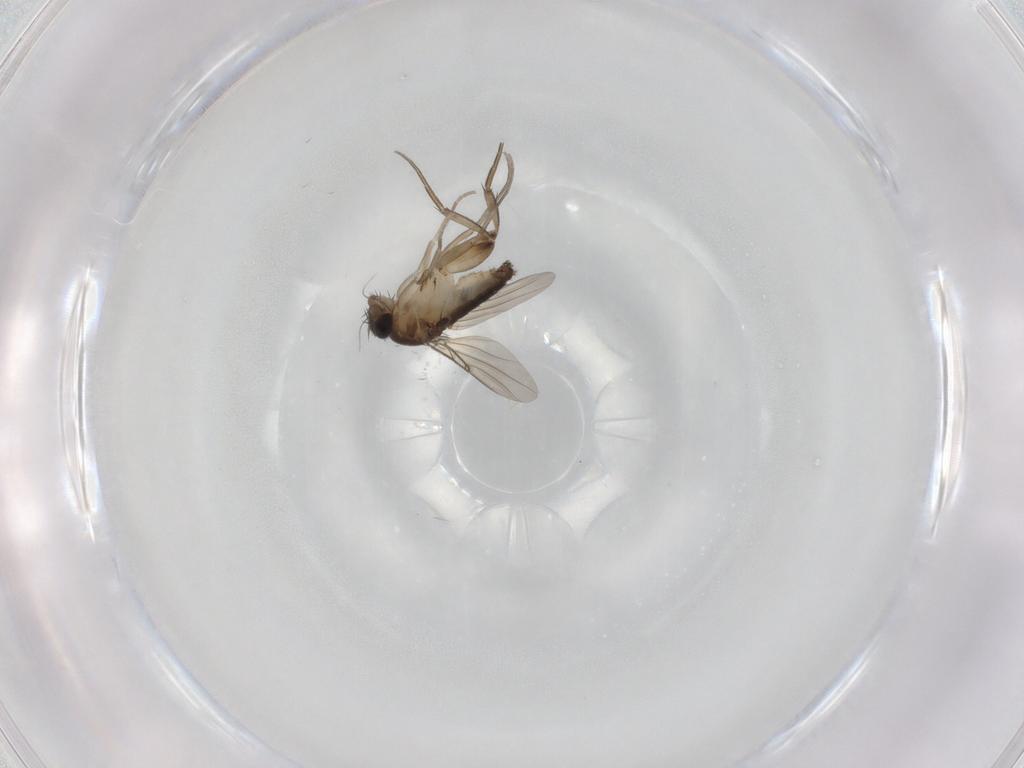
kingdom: Animalia
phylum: Arthropoda
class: Insecta
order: Diptera
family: Phoridae
